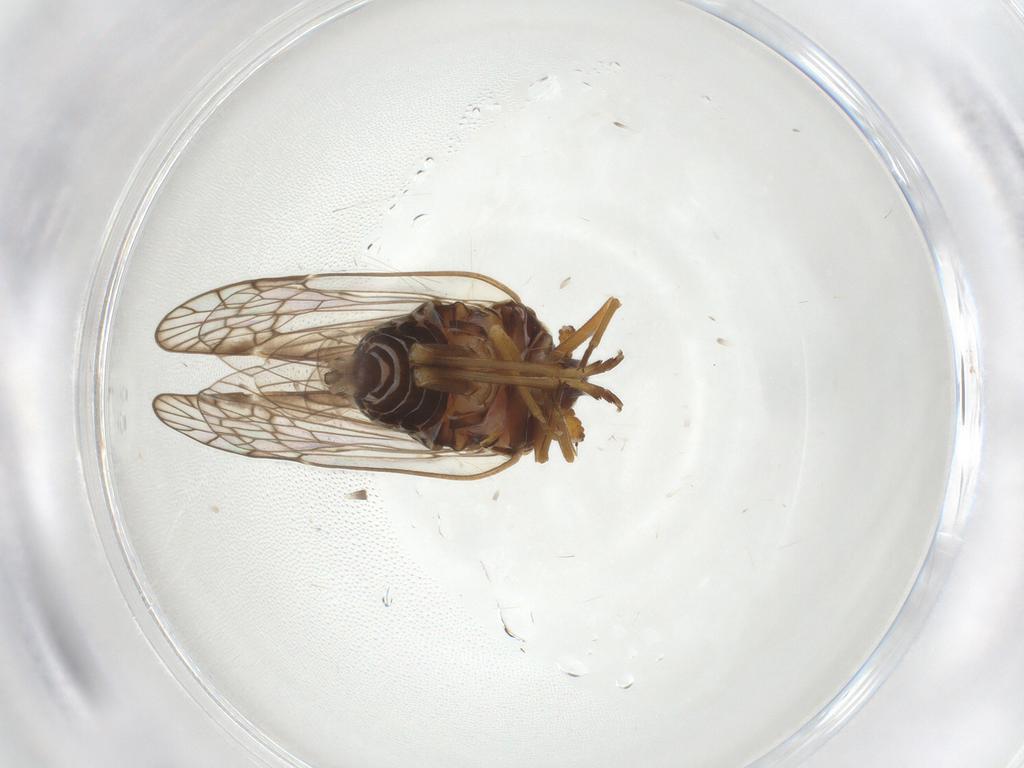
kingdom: Animalia
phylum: Arthropoda
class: Insecta
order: Hemiptera
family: Kinnaridae
